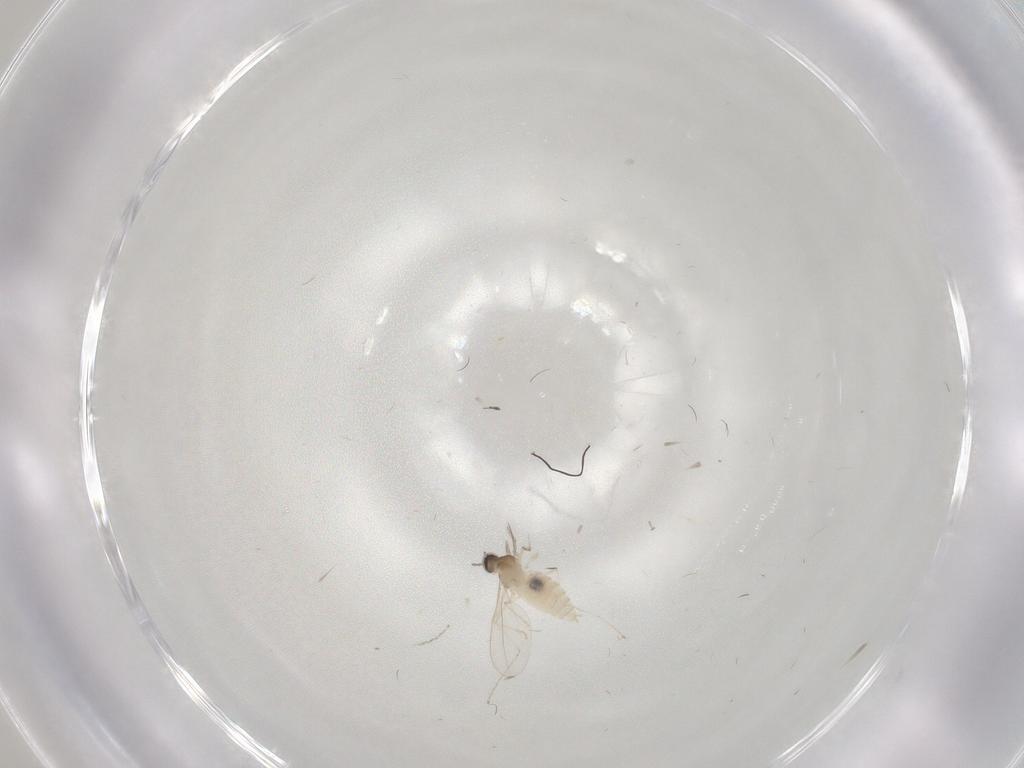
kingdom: Animalia
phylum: Arthropoda
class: Insecta
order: Diptera
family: Cecidomyiidae
